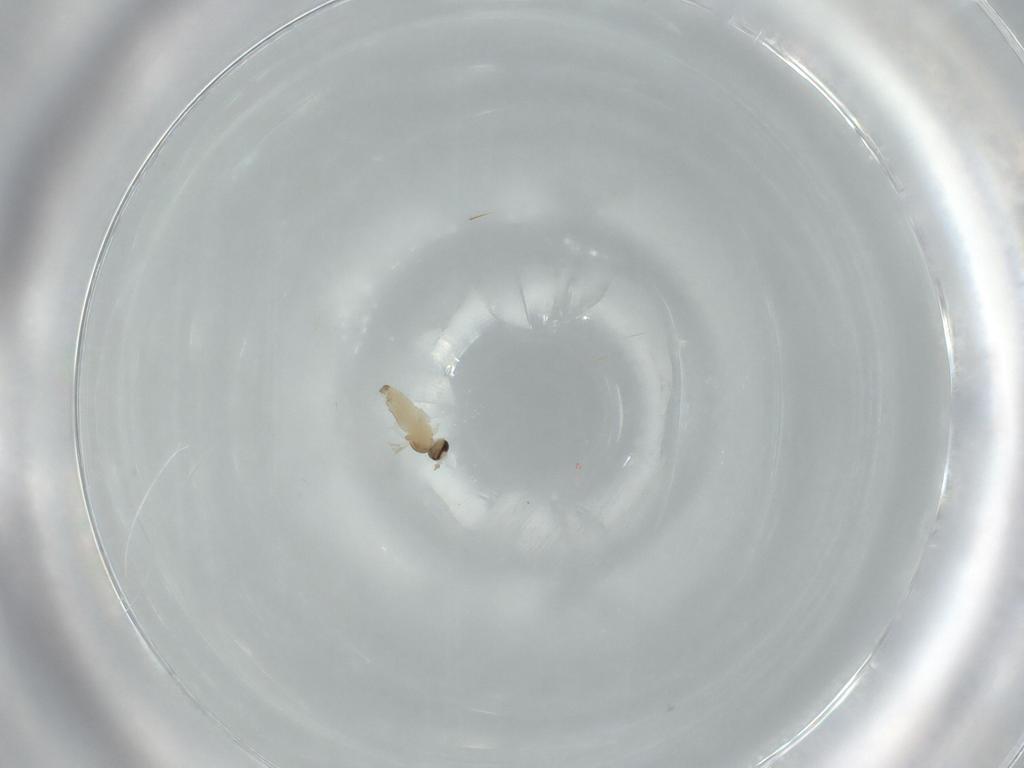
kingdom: Animalia
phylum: Arthropoda
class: Insecta
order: Diptera
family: Cecidomyiidae
